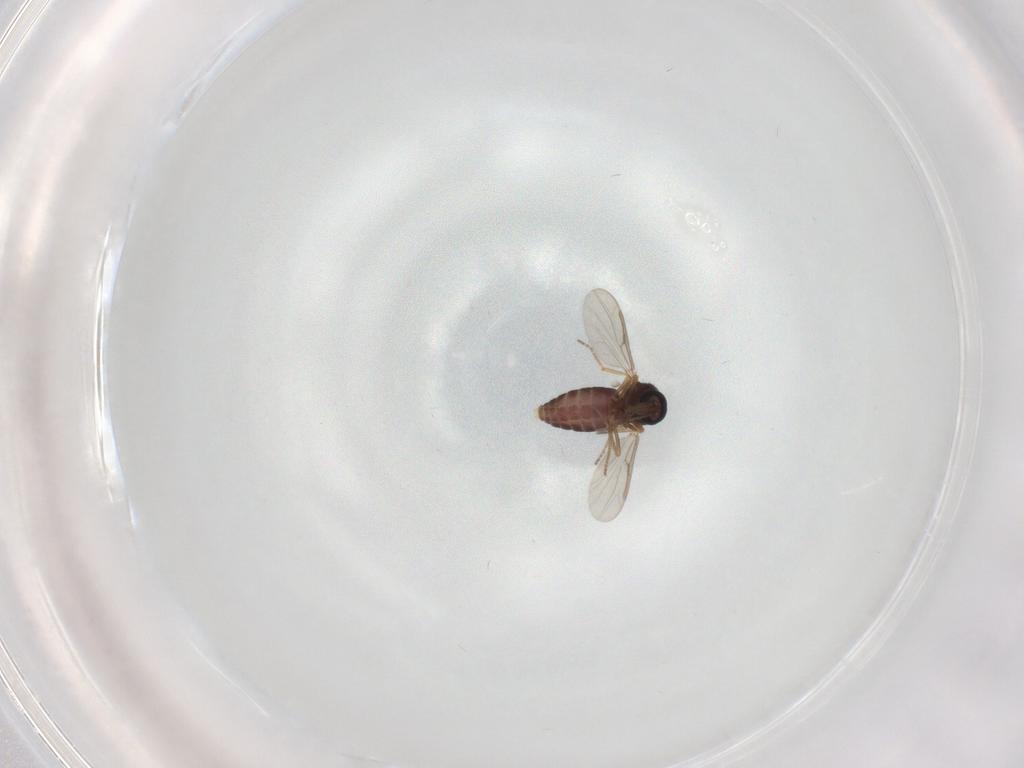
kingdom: Animalia
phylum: Arthropoda
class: Insecta
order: Diptera
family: Ceratopogonidae
